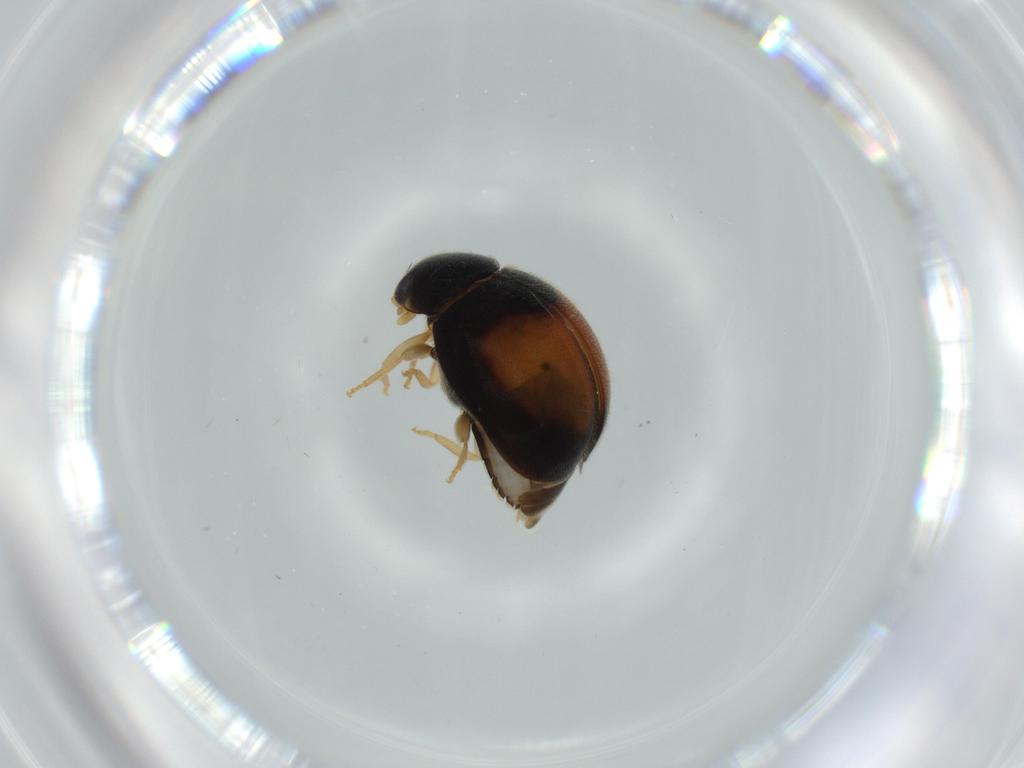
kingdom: Animalia
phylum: Arthropoda
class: Insecta
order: Coleoptera
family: Coccinellidae
